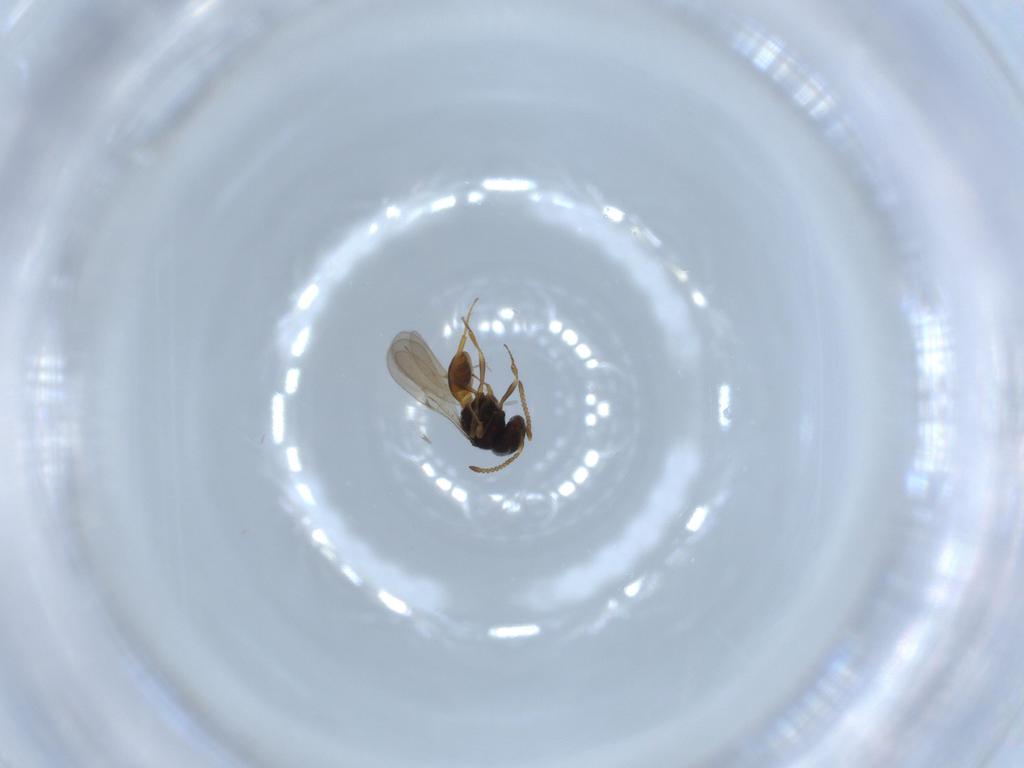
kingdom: Animalia
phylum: Arthropoda
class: Insecta
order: Hymenoptera
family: Scelionidae
